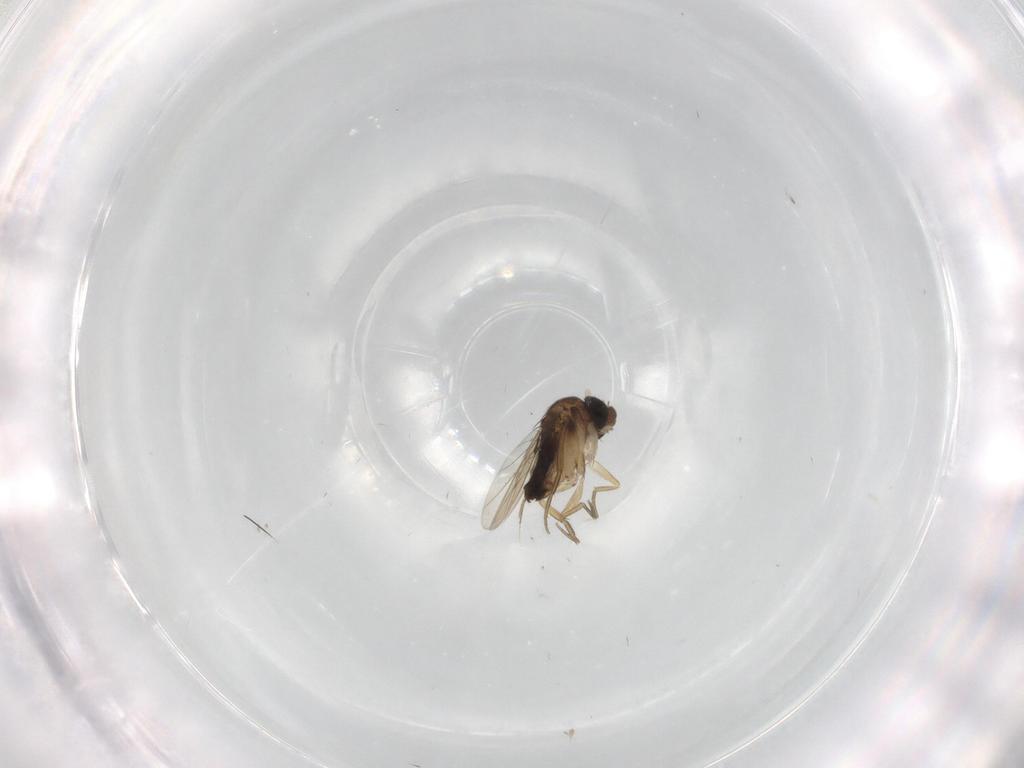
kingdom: Animalia
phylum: Arthropoda
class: Insecta
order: Diptera
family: Phoridae
